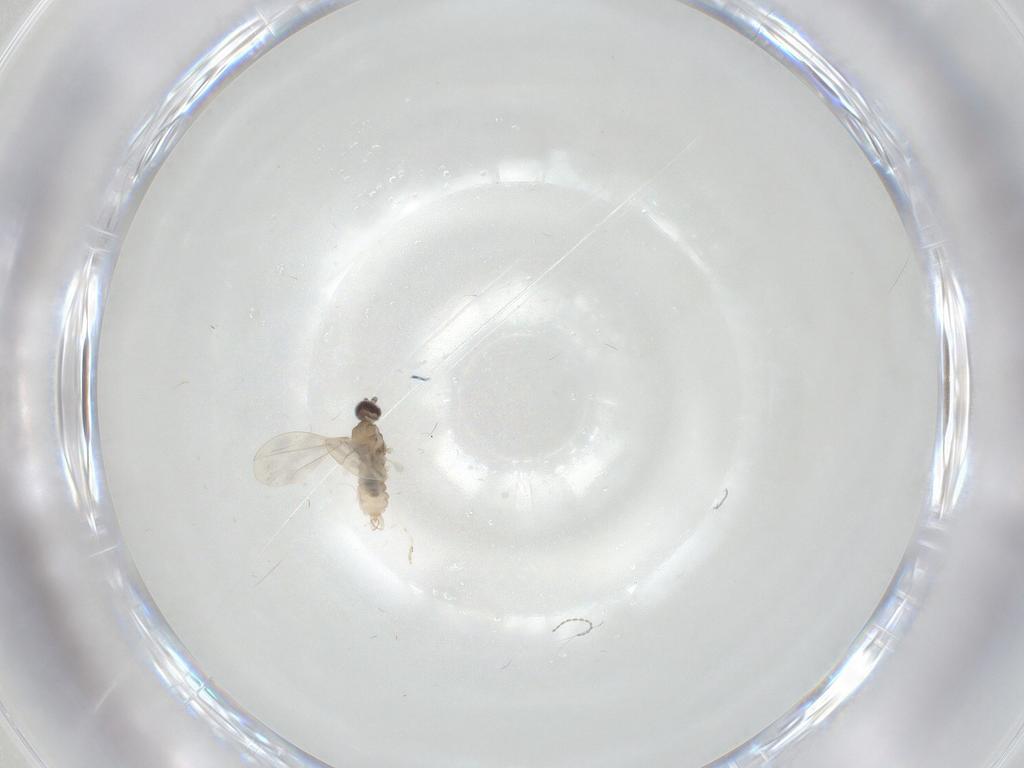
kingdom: Animalia
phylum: Arthropoda
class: Insecta
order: Diptera
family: Cecidomyiidae
